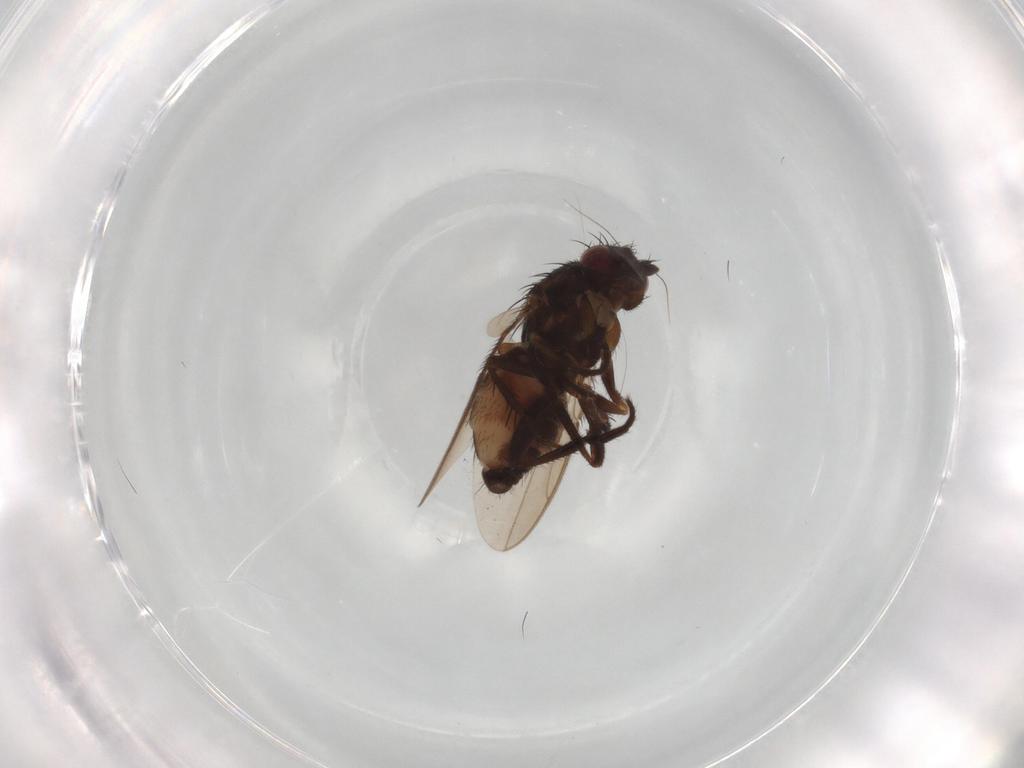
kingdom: Animalia
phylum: Arthropoda
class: Insecta
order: Diptera
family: Sphaeroceridae
